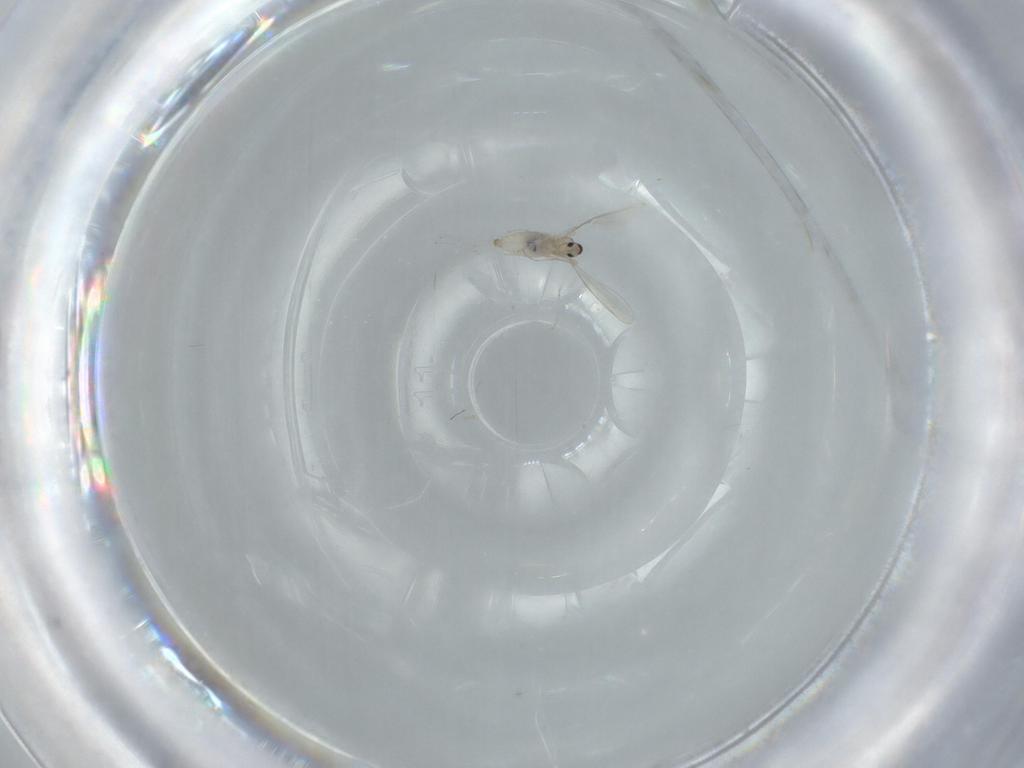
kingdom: Animalia
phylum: Arthropoda
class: Insecta
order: Diptera
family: Cecidomyiidae
